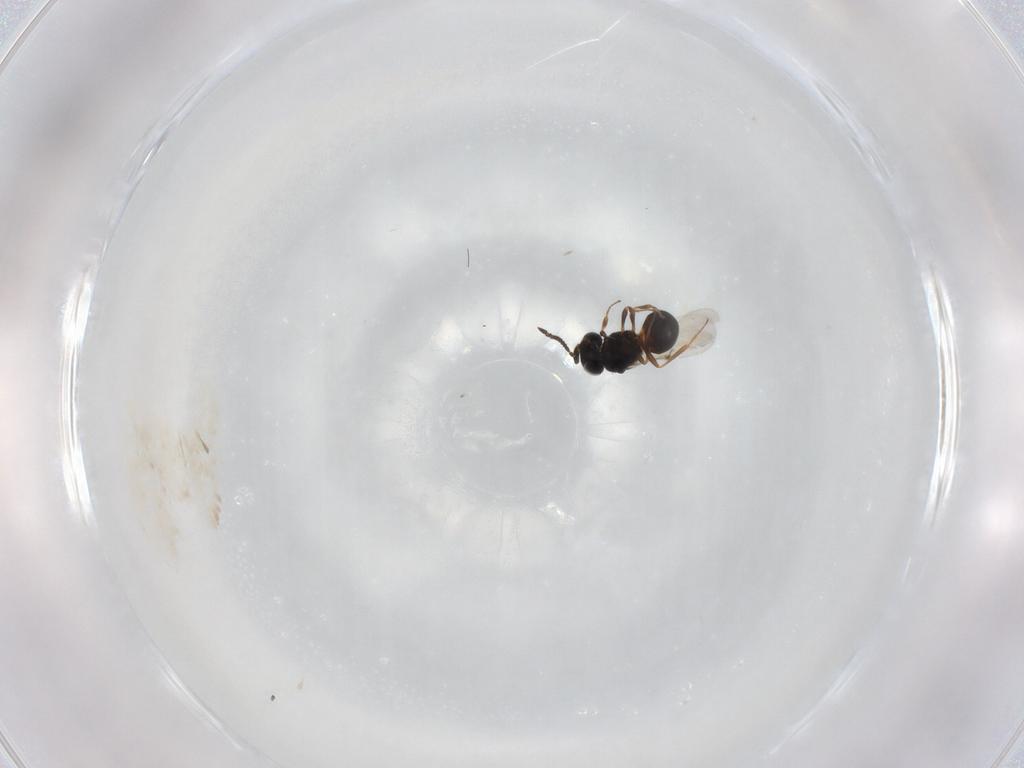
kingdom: Animalia
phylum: Arthropoda
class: Arachnida
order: Araneae
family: Pholcidae
